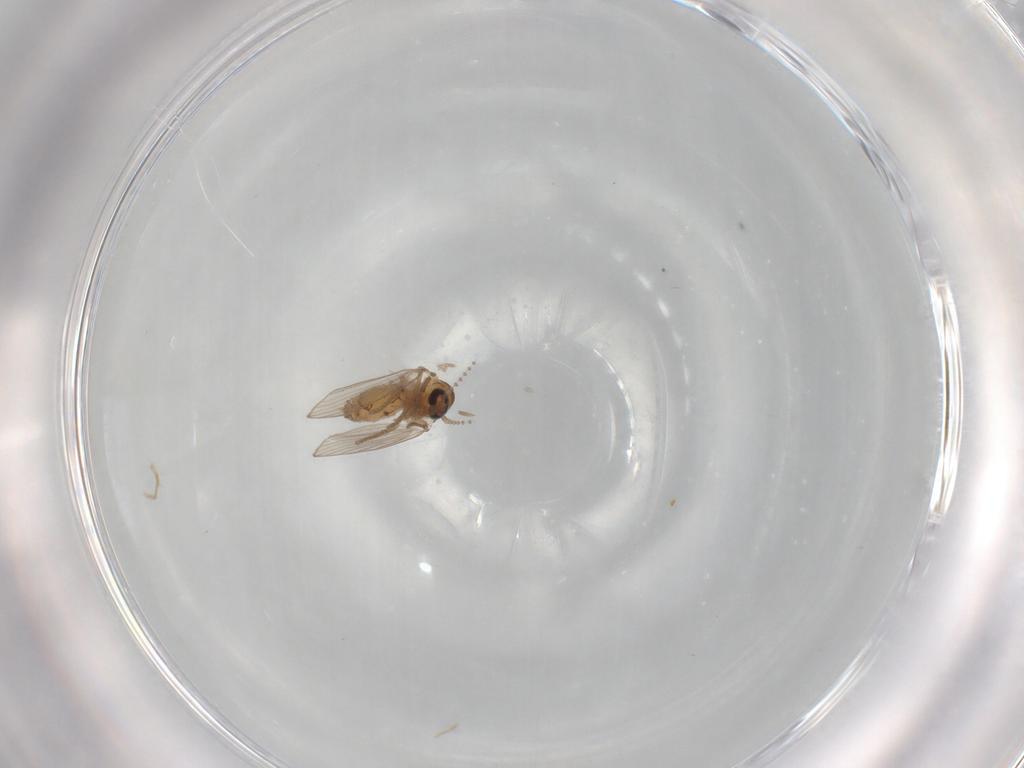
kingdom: Animalia
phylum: Arthropoda
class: Insecta
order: Diptera
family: Psychodidae
